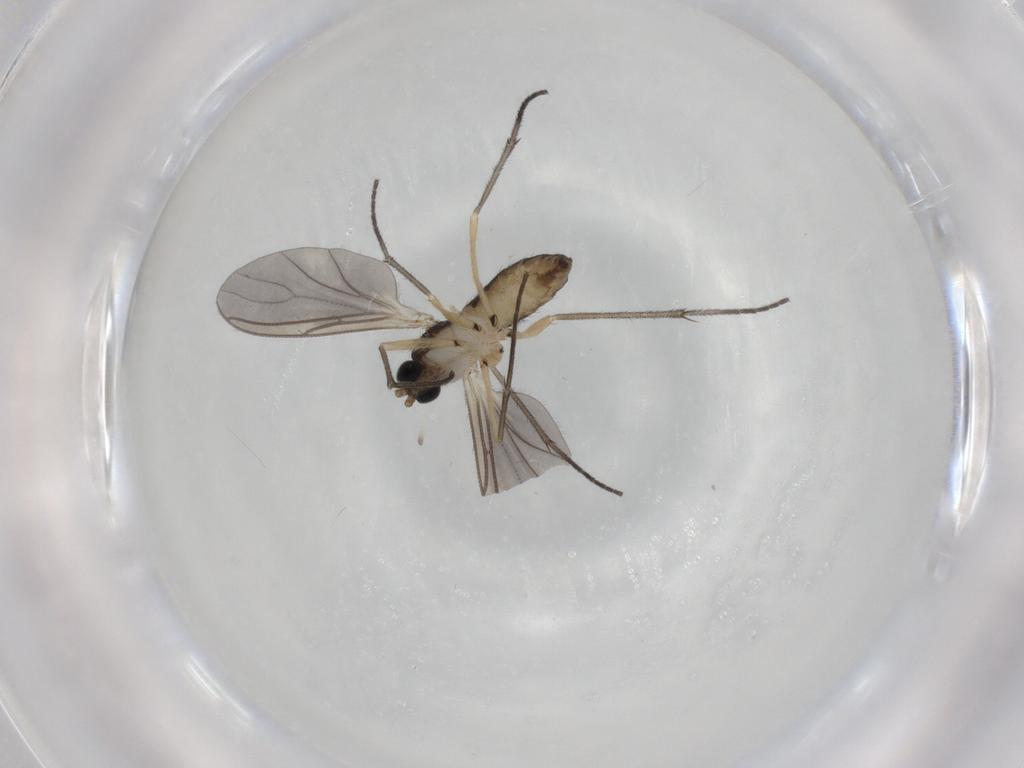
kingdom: Animalia
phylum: Arthropoda
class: Insecta
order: Diptera
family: Sciaridae
